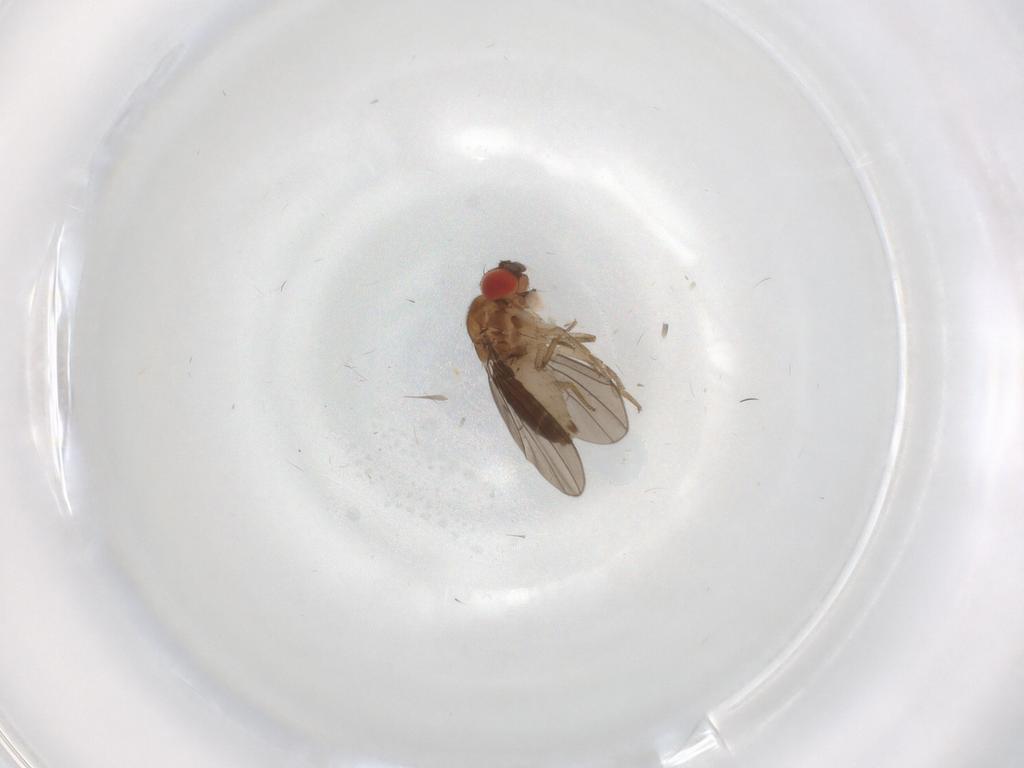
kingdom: Animalia
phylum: Arthropoda
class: Insecta
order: Diptera
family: Drosophilidae
